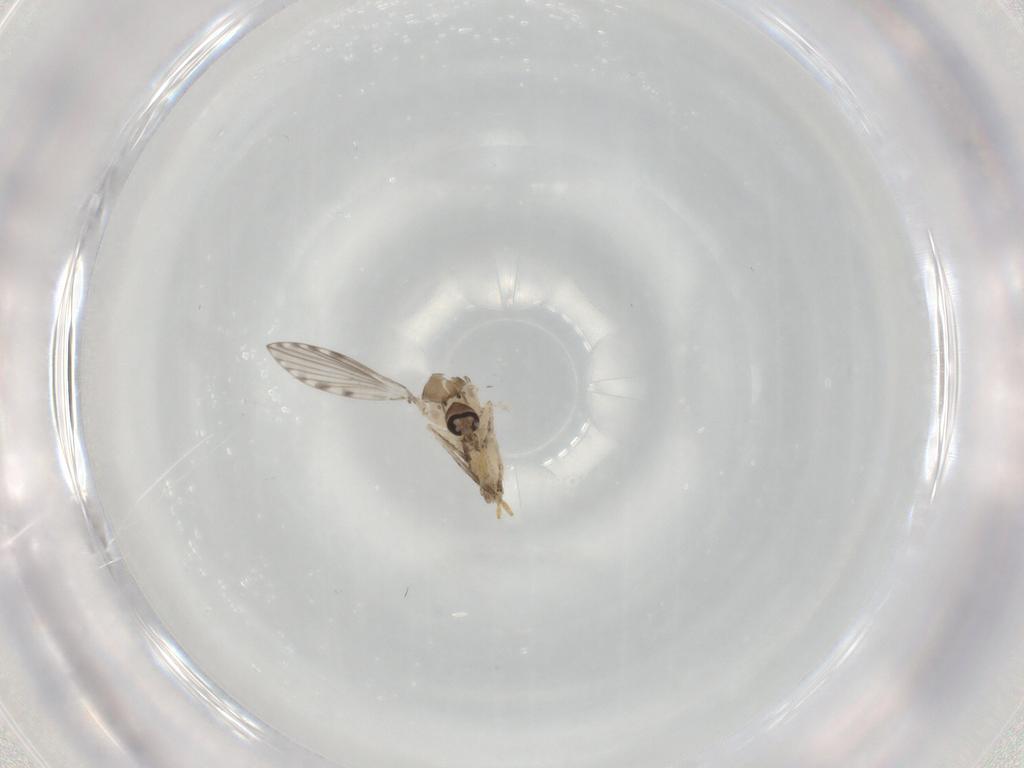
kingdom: Animalia
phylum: Arthropoda
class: Insecta
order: Diptera
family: Psychodidae
